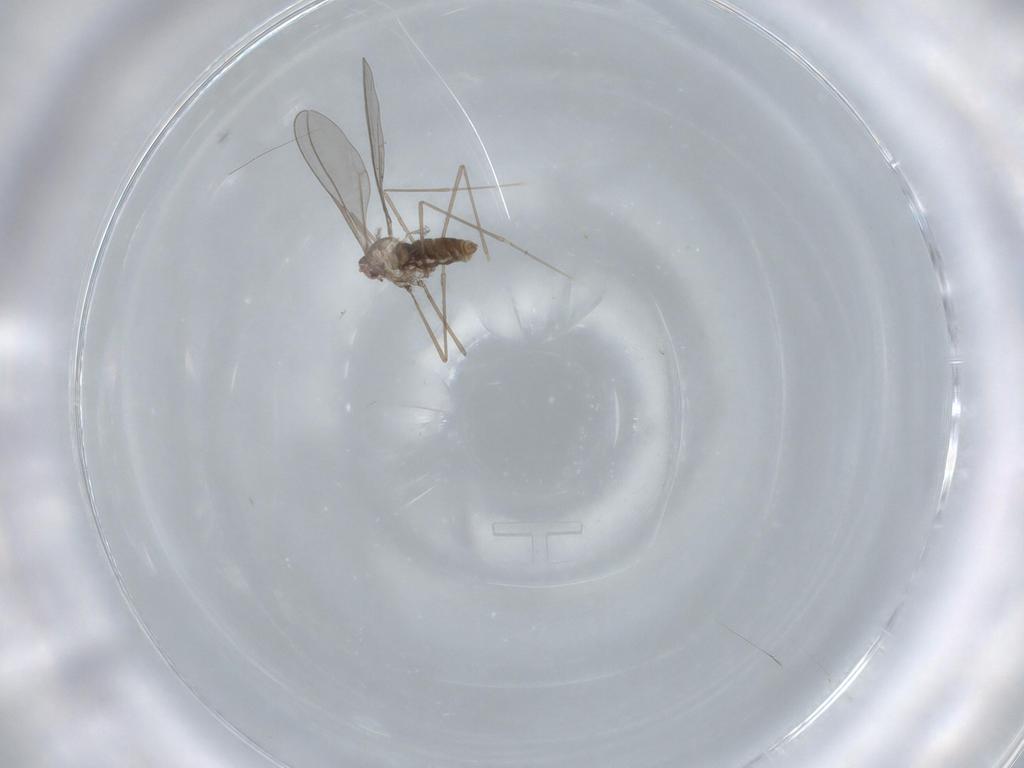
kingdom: Animalia
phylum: Arthropoda
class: Insecta
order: Diptera
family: Cecidomyiidae
